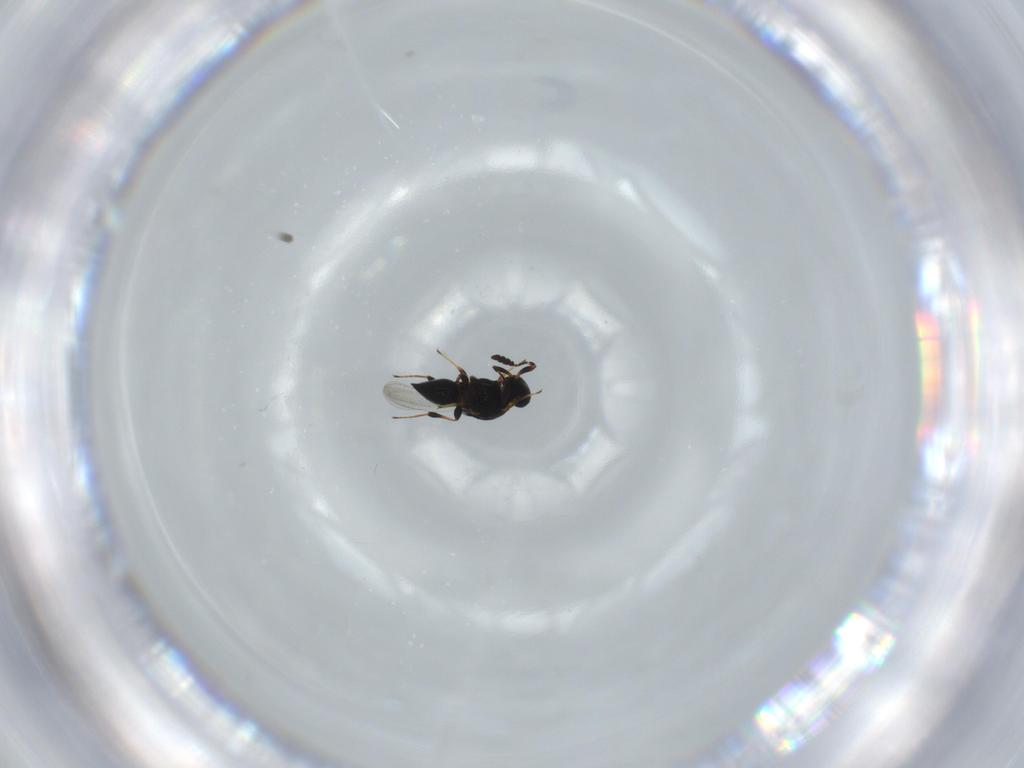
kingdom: Animalia
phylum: Arthropoda
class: Insecta
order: Hymenoptera
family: Platygastridae
